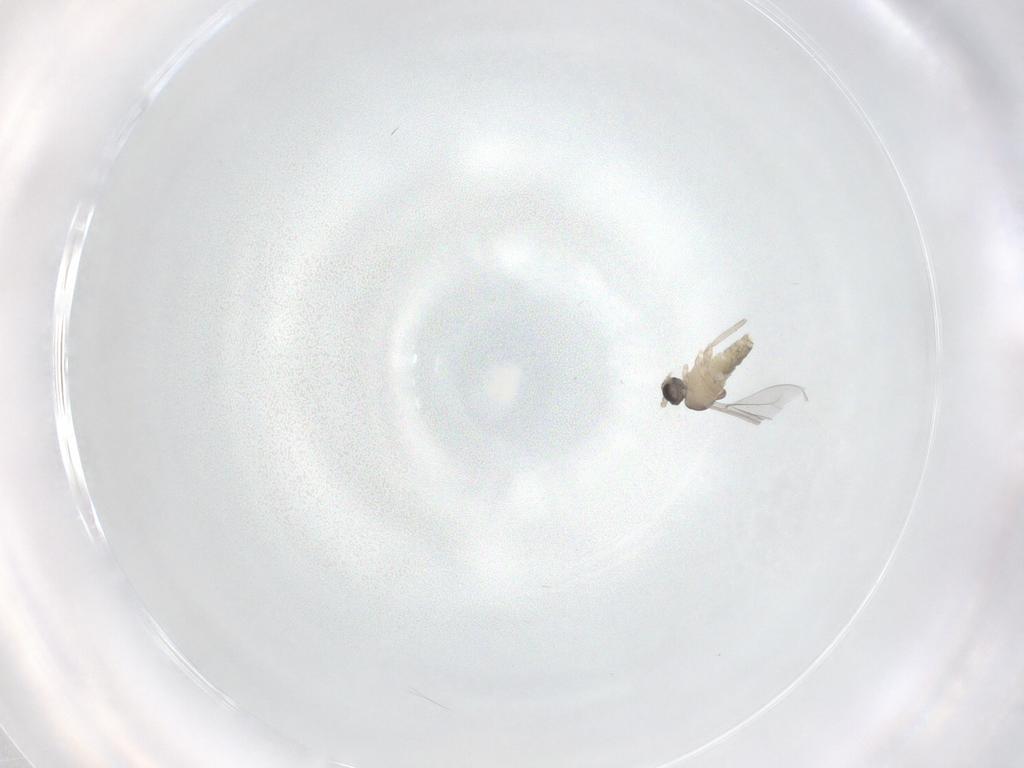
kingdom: Animalia
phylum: Arthropoda
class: Insecta
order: Diptera
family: Cecidomyiidae
